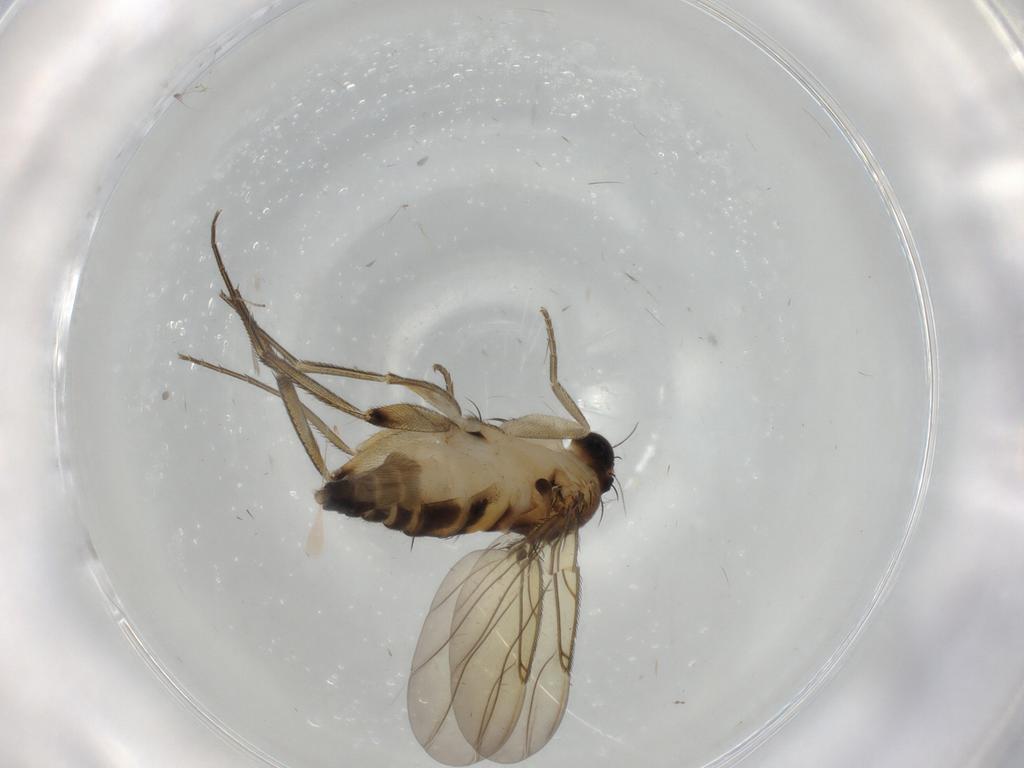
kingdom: Animalia
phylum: Arthropoda
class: Insecta
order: Diptera
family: Phoridae
